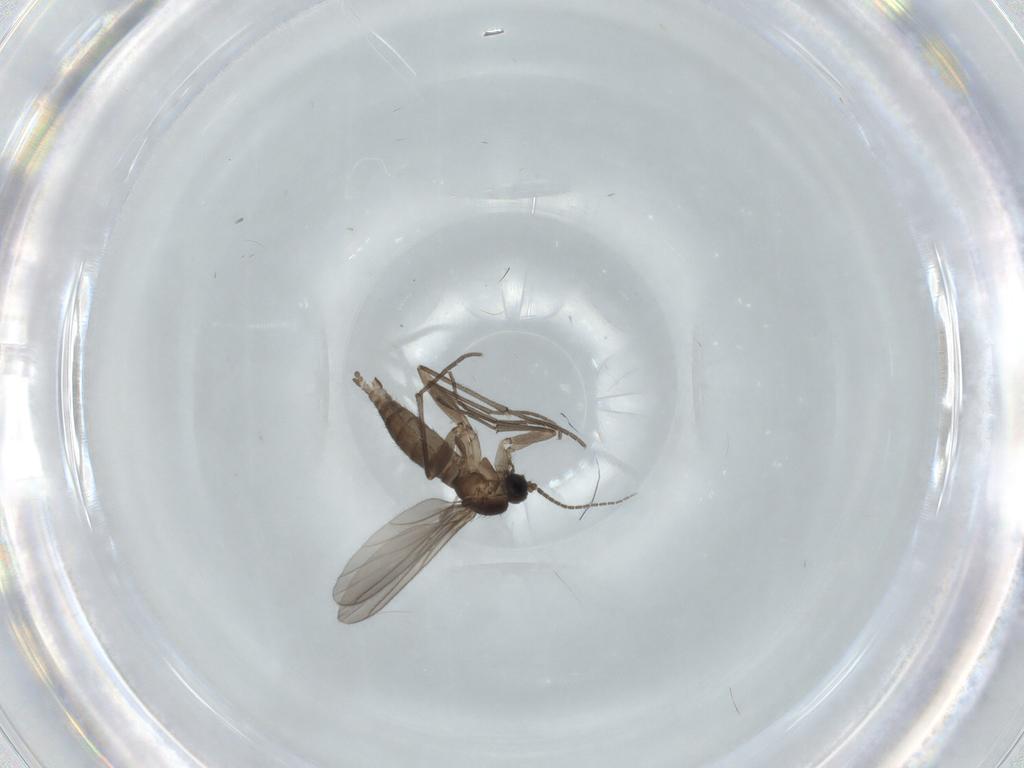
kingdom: Animalia
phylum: Arthropoda
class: Insecta
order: Diptera
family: Sciaridae
